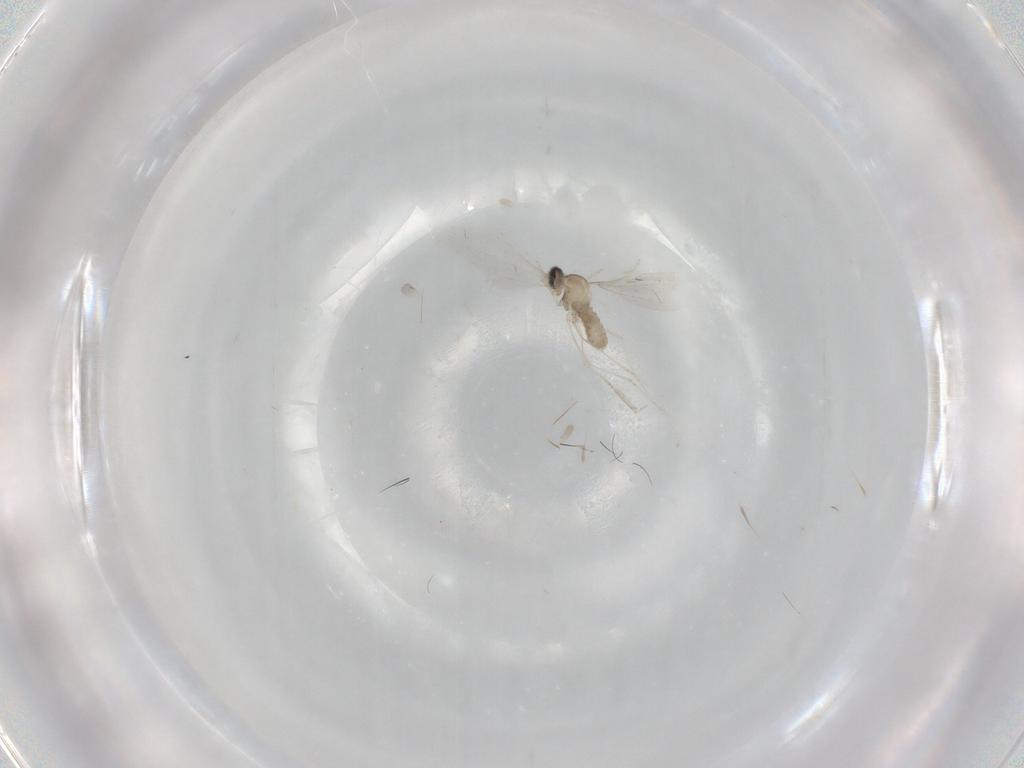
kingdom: Animalia
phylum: Arthropoda
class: Insecta
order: Diptera
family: Cecidomyiidae
